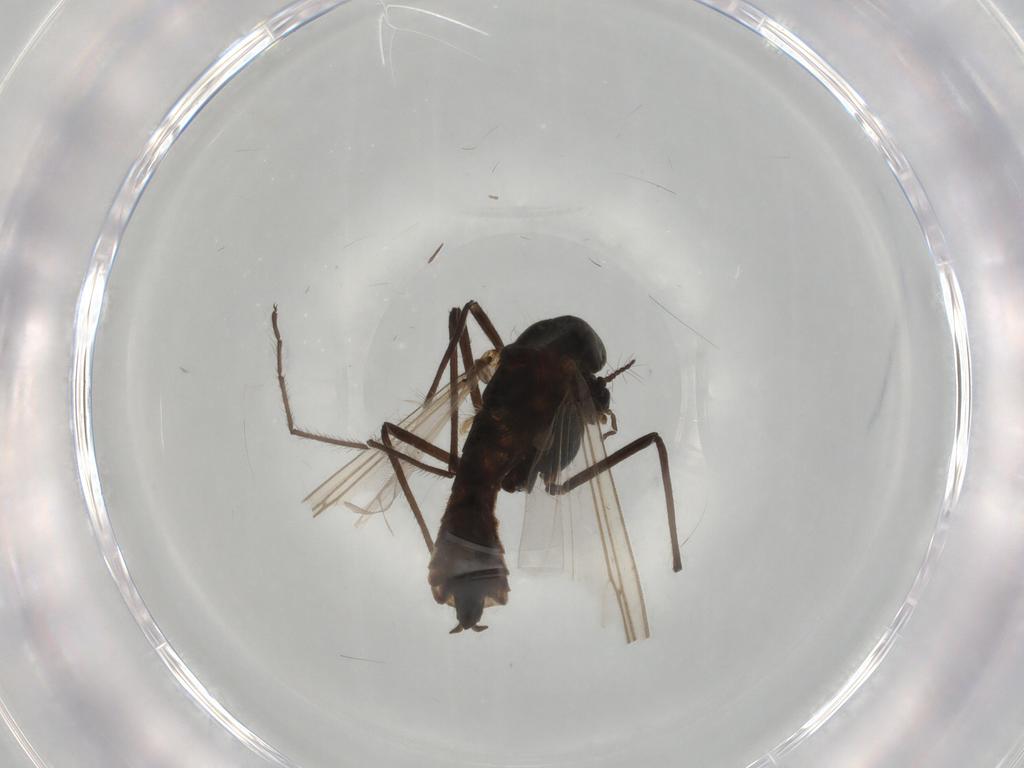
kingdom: Animalia
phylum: Arthropoda
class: Insecta
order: Diptera
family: Chironomidae
